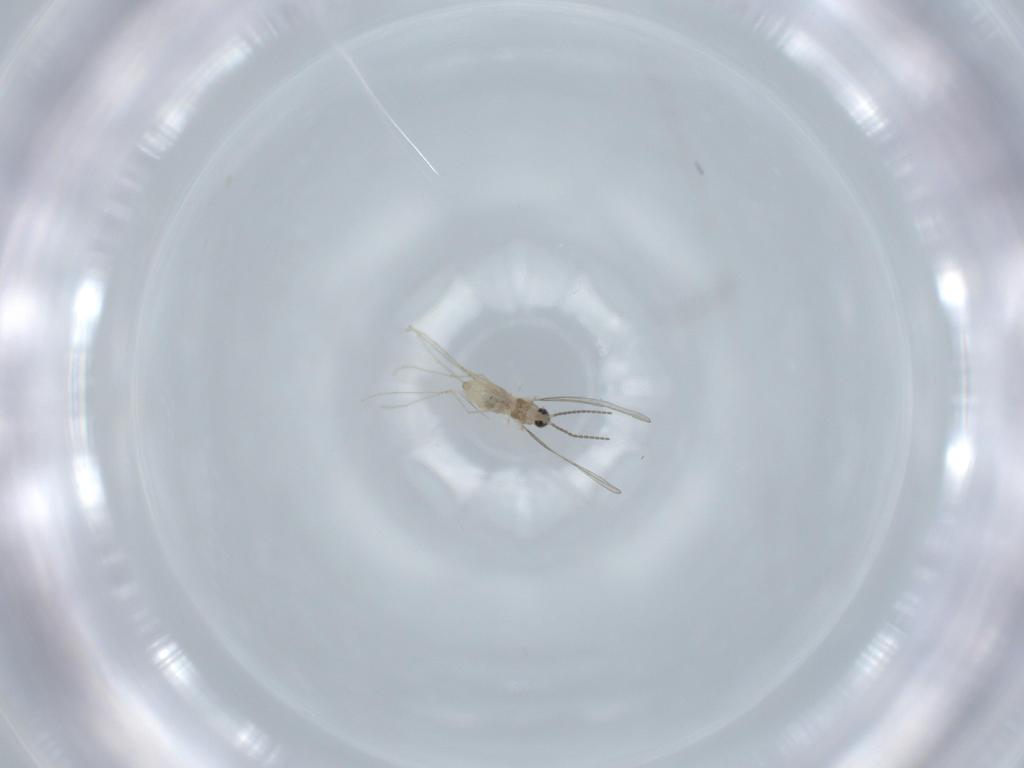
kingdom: Animalia
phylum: Arthropoda
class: Insecta
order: Diptera
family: Cecidomyiidae
